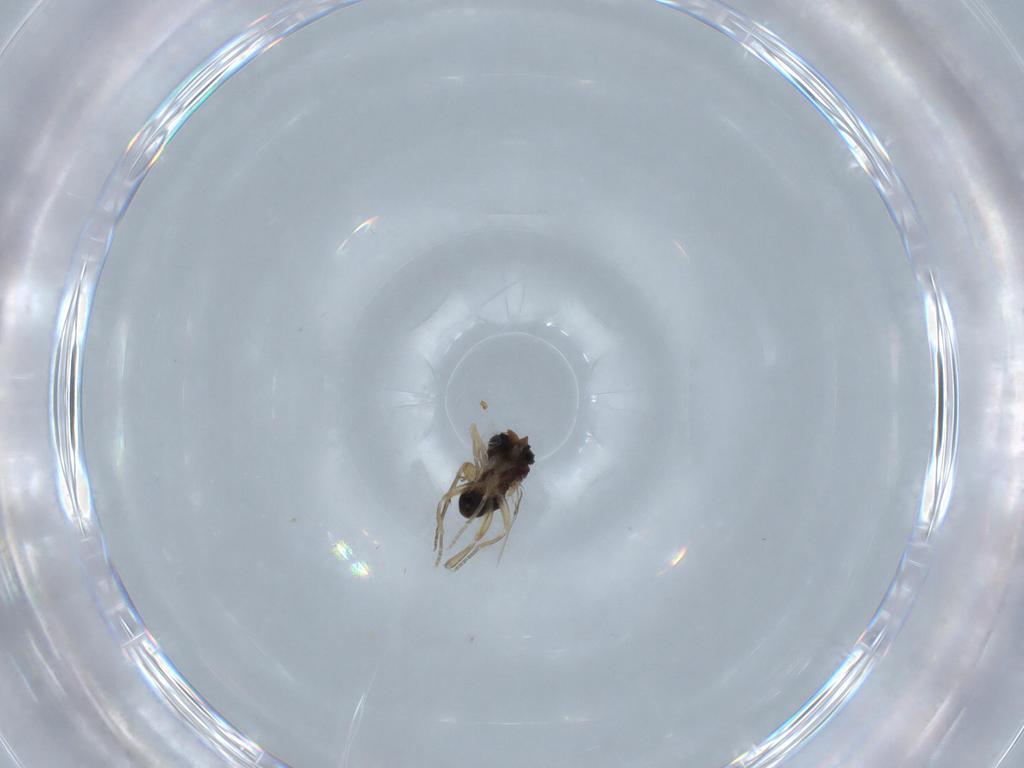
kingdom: Animalia
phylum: Arthropoda
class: Insecta
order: Diptera
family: Phoridae
